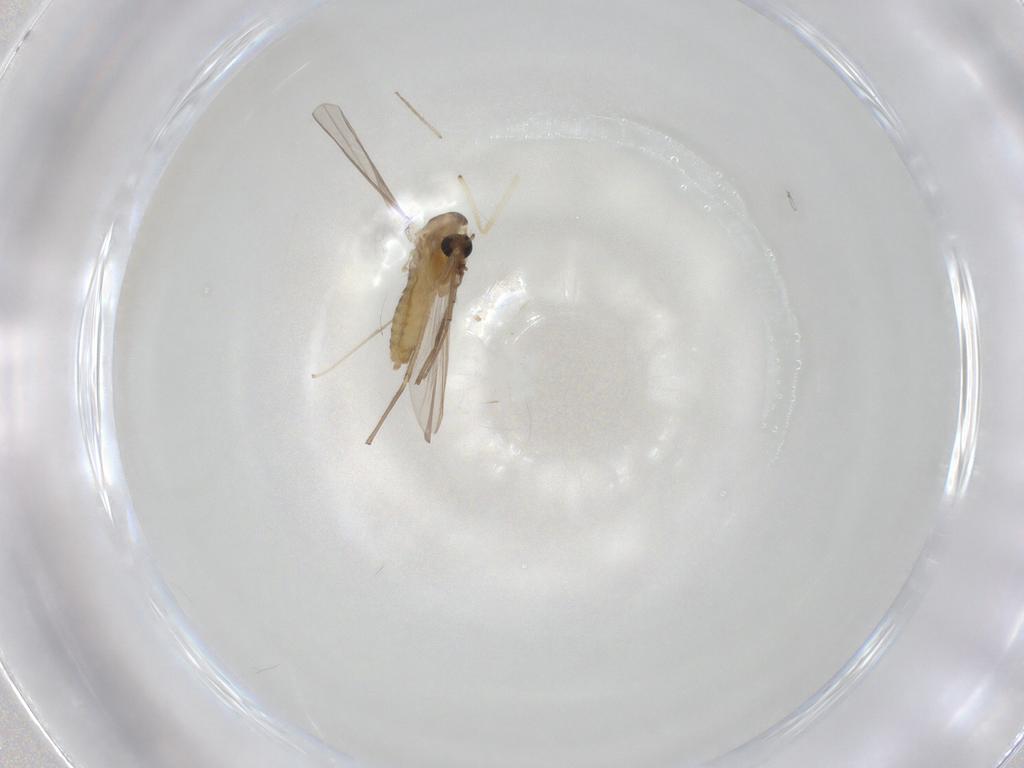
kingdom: Animalia
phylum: Arthropoda
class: Insecta
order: Diptera
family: Chironomidae
